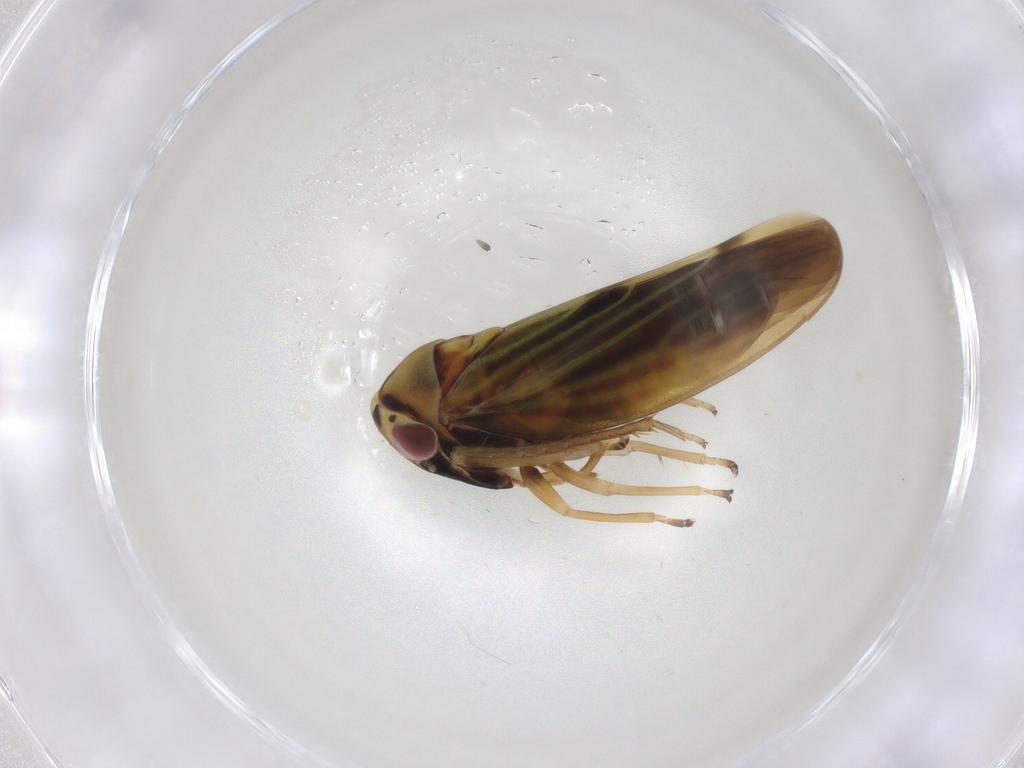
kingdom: Animalia
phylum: Arthropoda
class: Insecta
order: Hemiptera
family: Cicadellidae
